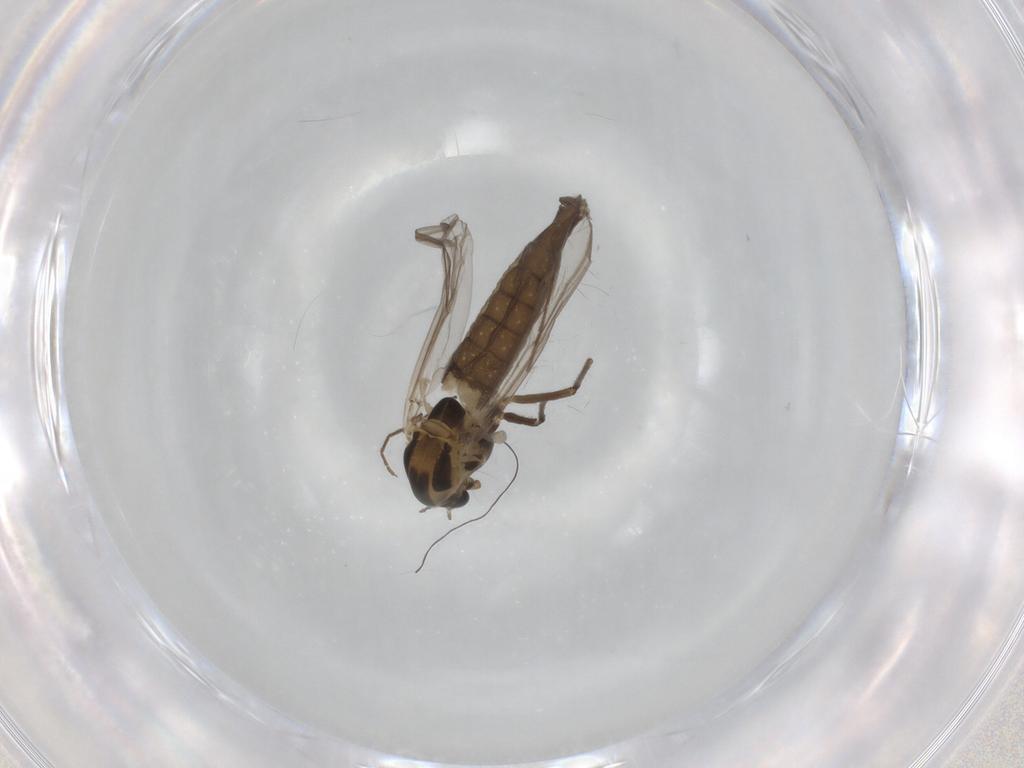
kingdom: Animalia
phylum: Arthropoda
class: Insecta
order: Diptera
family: Chironomidae
